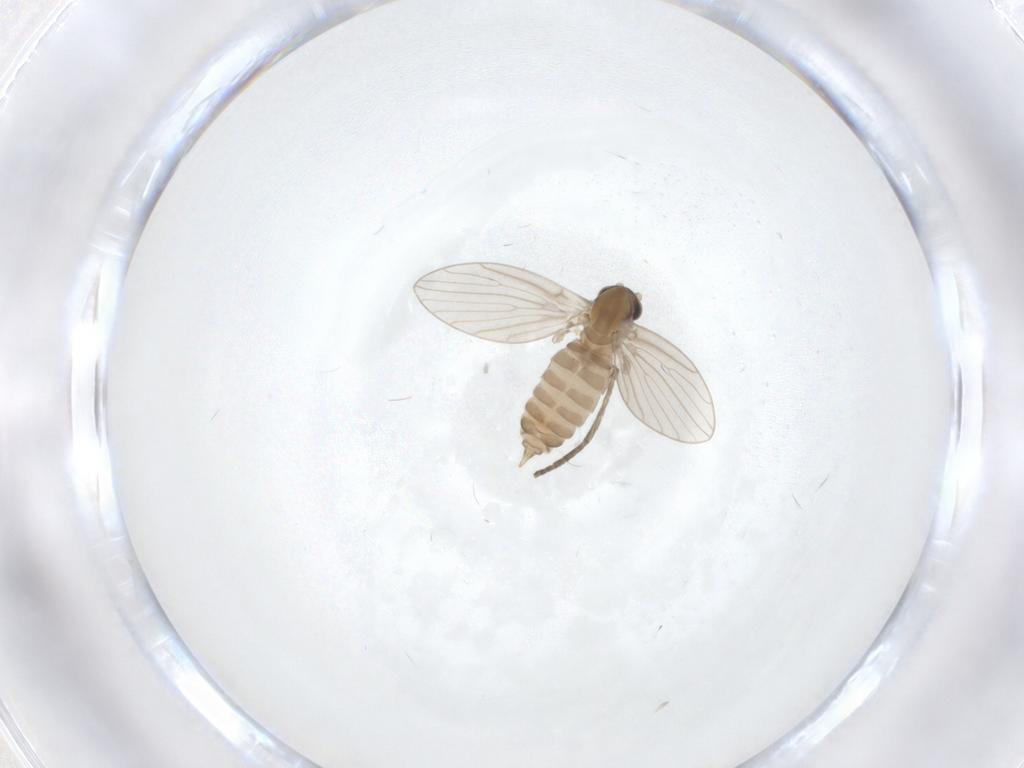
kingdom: Animalia
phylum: Arthropoda
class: Insecta
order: Diptera
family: Psychodidae
